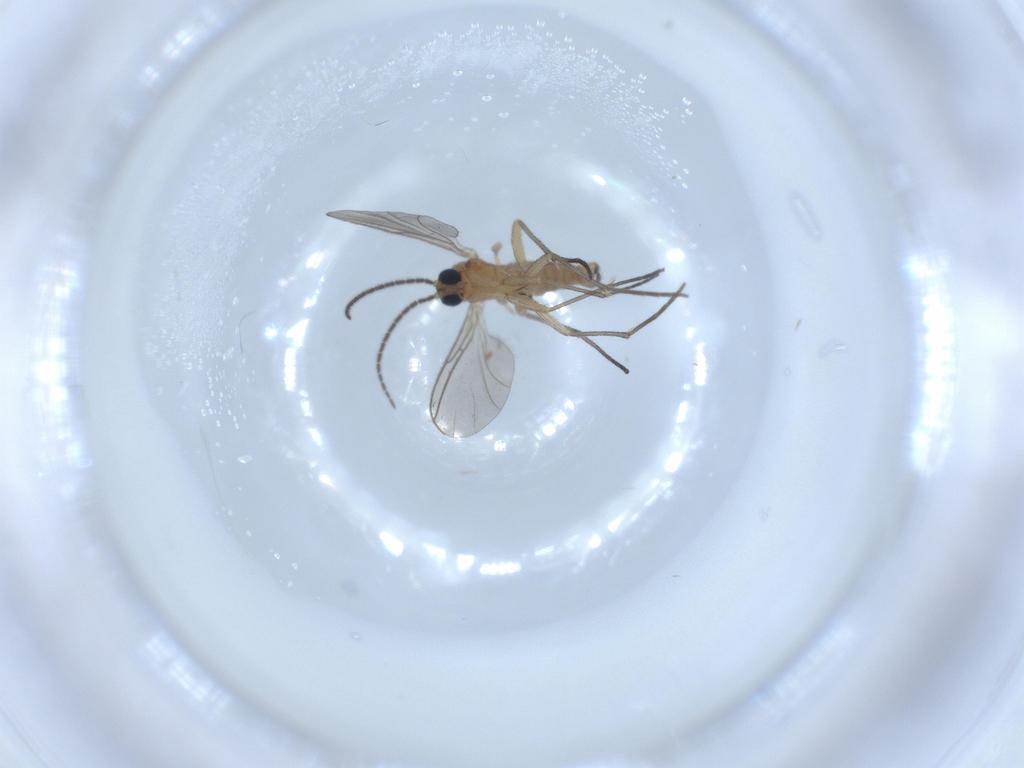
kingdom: Animalia
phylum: Arthropoda
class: Insecta
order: Diptera
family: Sciaridae
